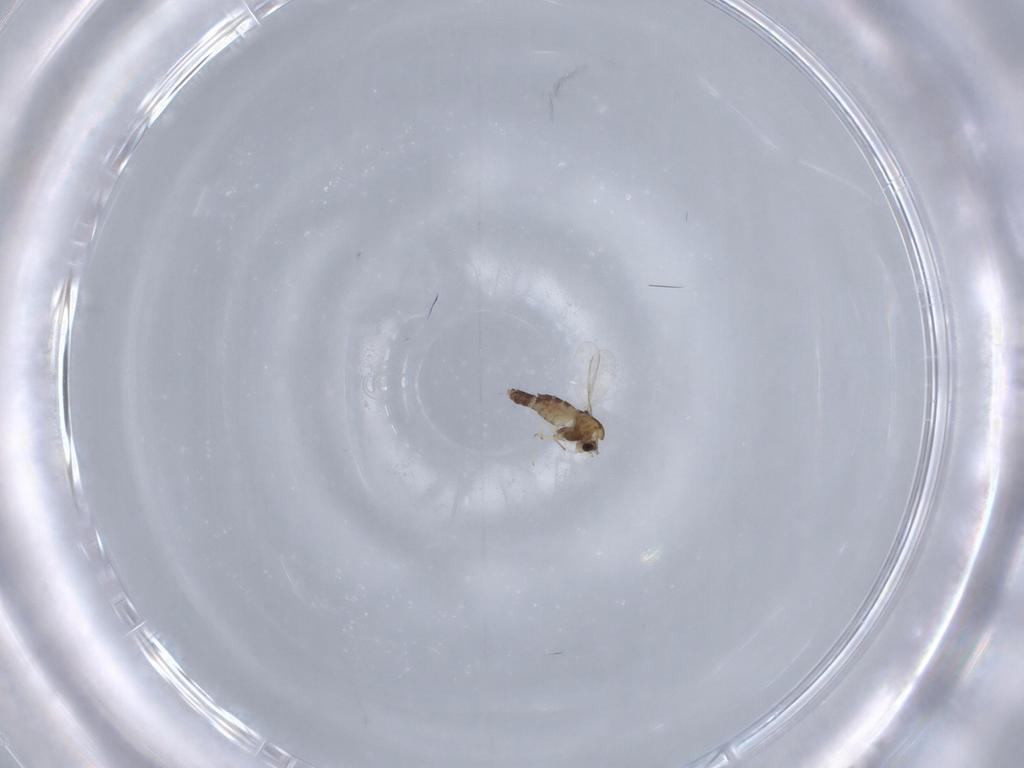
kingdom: Animalia
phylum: Arthropoda
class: Insecta
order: Diptera
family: Chironomidae
